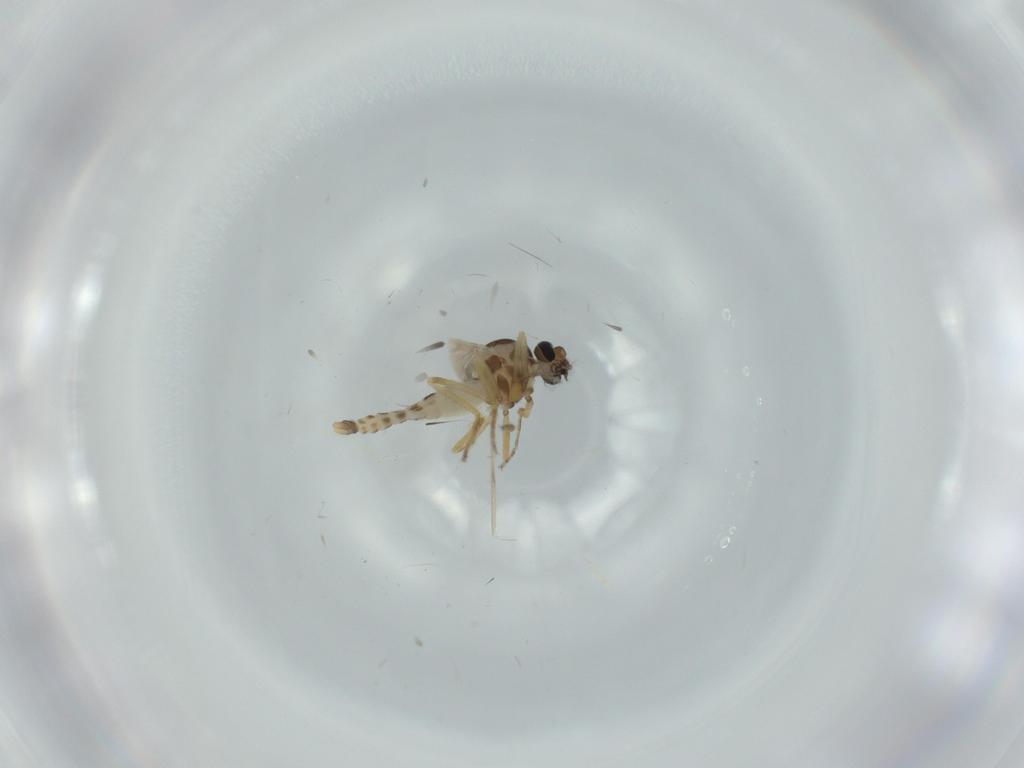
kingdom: Animalia
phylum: Arthropoda
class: Insecta
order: Diptera
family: Ceratopogonidae
